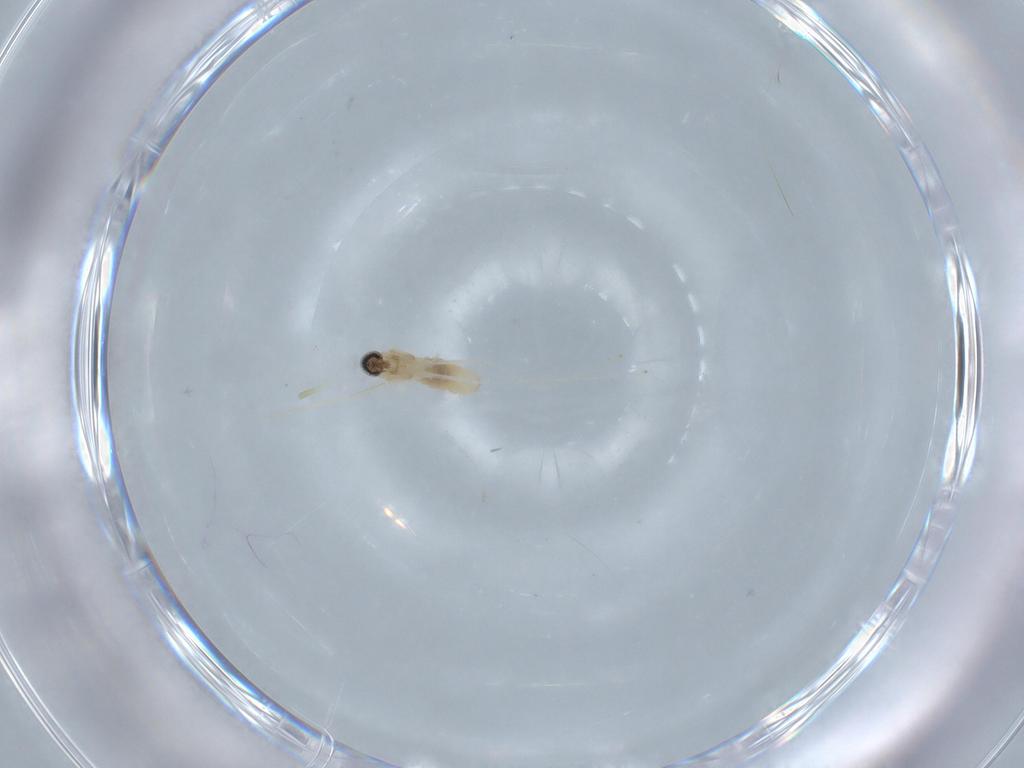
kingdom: Animalia
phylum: Arthropoda
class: Insecta
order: Diptera
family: Cecidomyiidae
